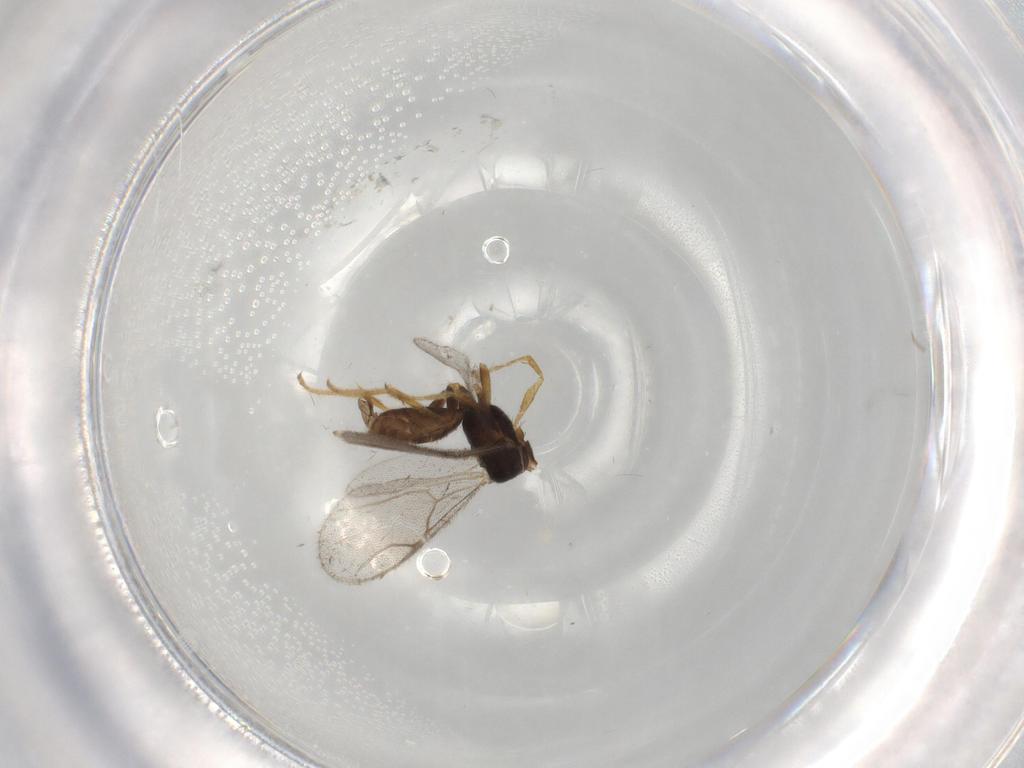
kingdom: Animalia
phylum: Arthropoda
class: Insecta
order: Hymenoptera
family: Dryinidae
